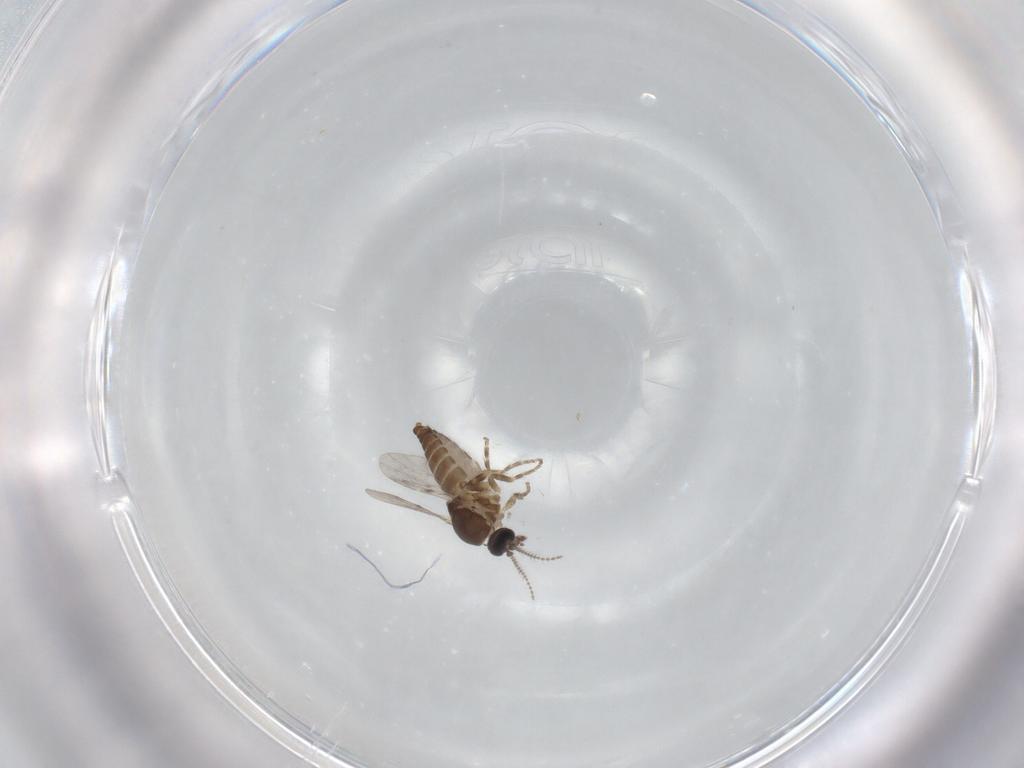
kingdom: Animalia
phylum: Arthropoda
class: Insecta
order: Diptera
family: Ceratopogonidae
